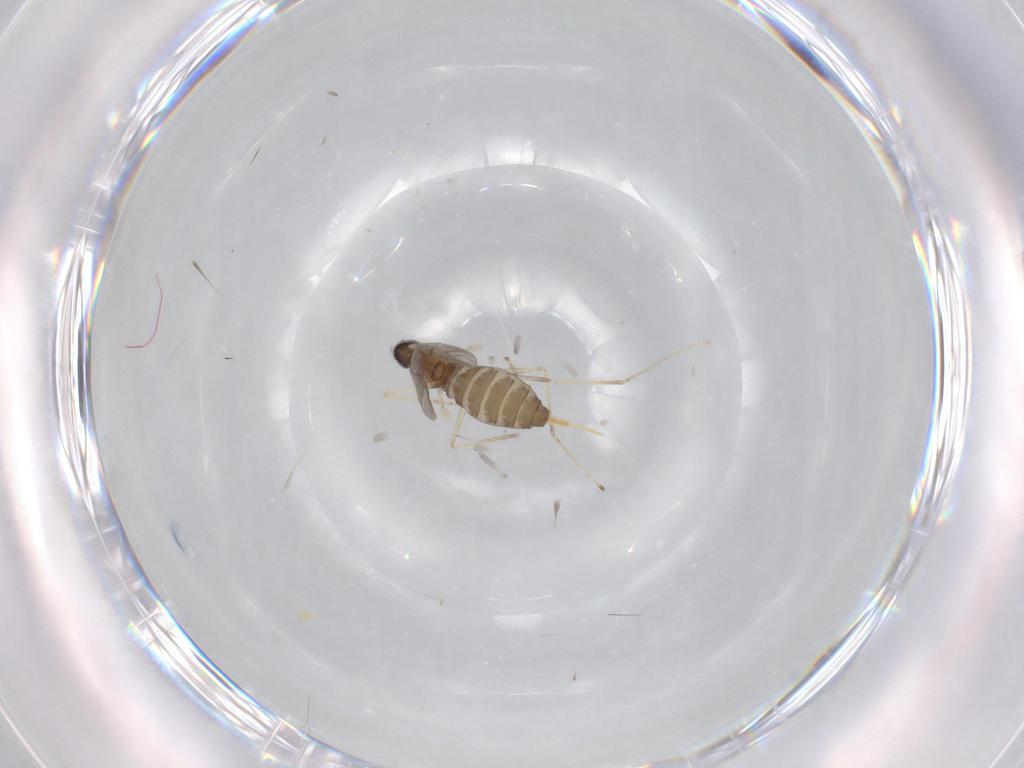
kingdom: Animalia
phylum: Arthropoda
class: Insecta
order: Diptera
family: Cecidomyiidae
